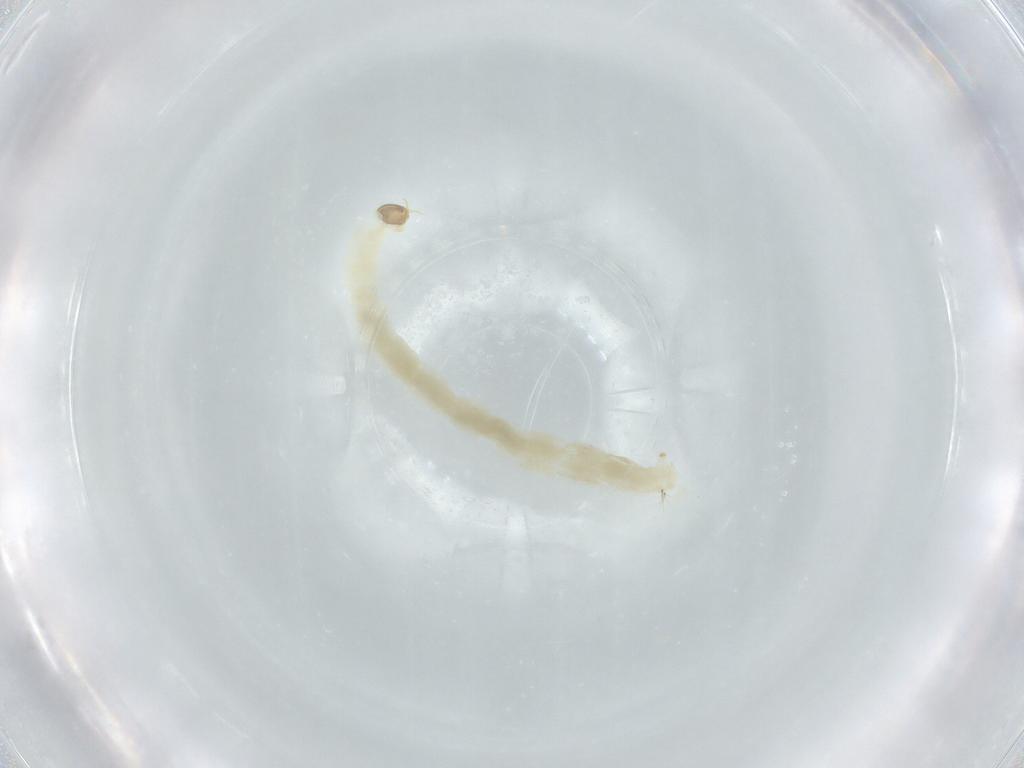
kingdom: Animalia
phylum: Arthropoda
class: Insecta
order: Diptera
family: Chironomidae
